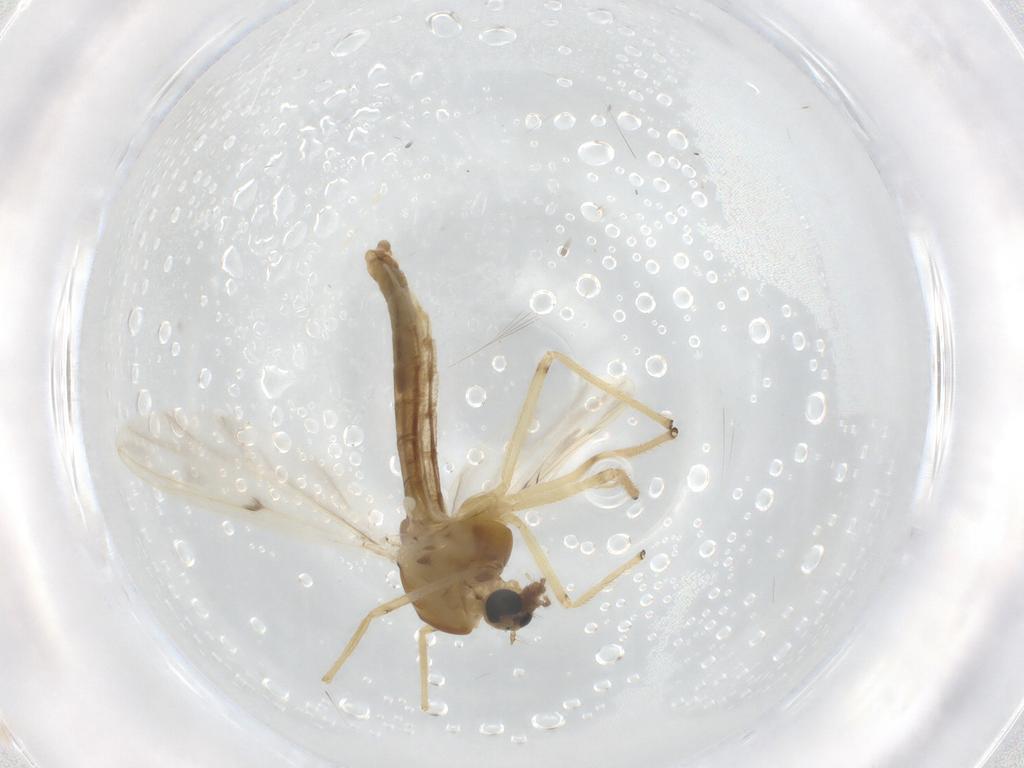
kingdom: Animalia
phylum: Arthropoda
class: Insecta
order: Diptera
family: Chironomidae
